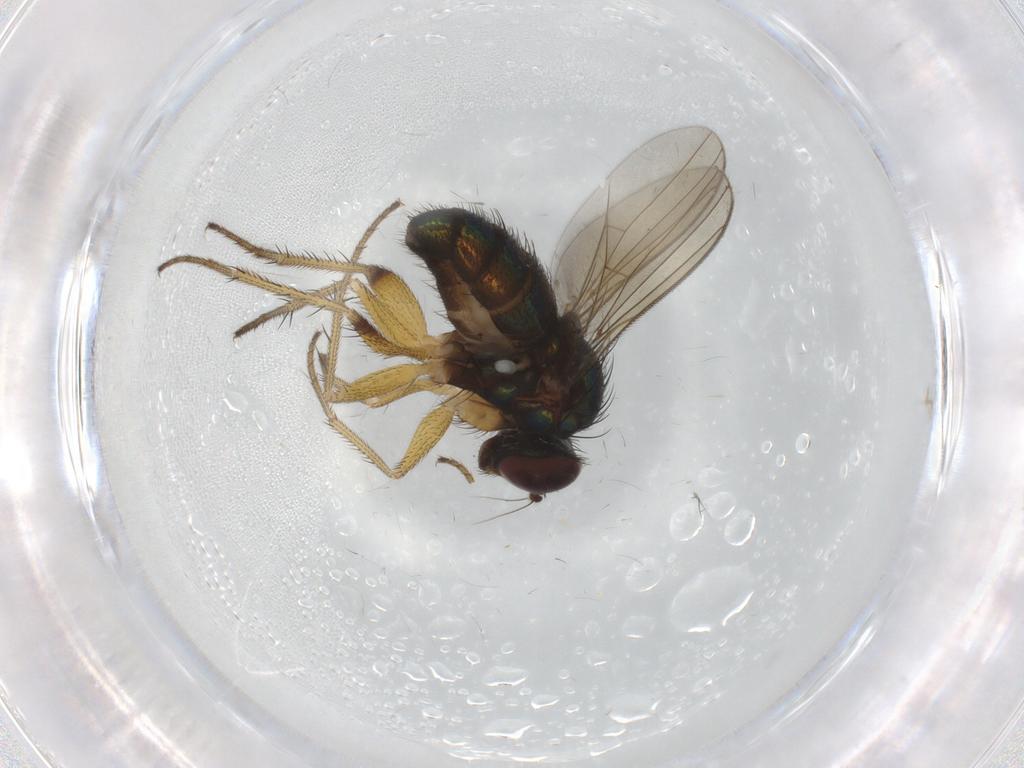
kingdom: Animalia
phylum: Arthropoda
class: Insecta
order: Diptera
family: Dolichopodidae
